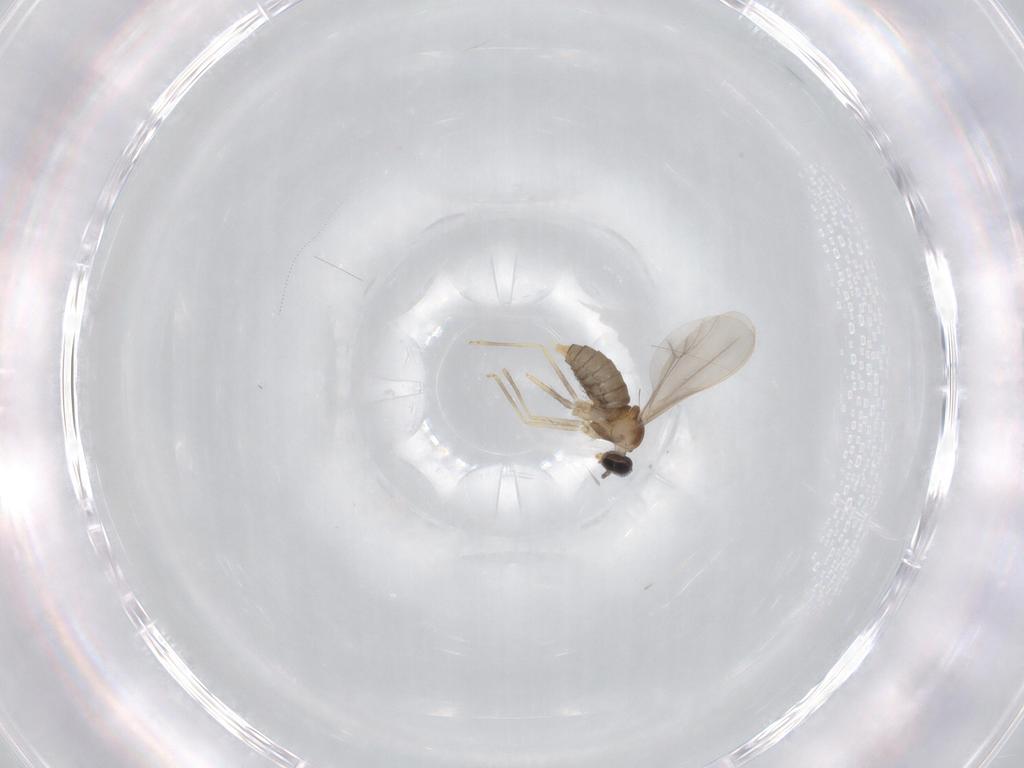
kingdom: Animalia
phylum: Arthropoda
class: Insecta
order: Diptera
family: Cecidomyiidae
